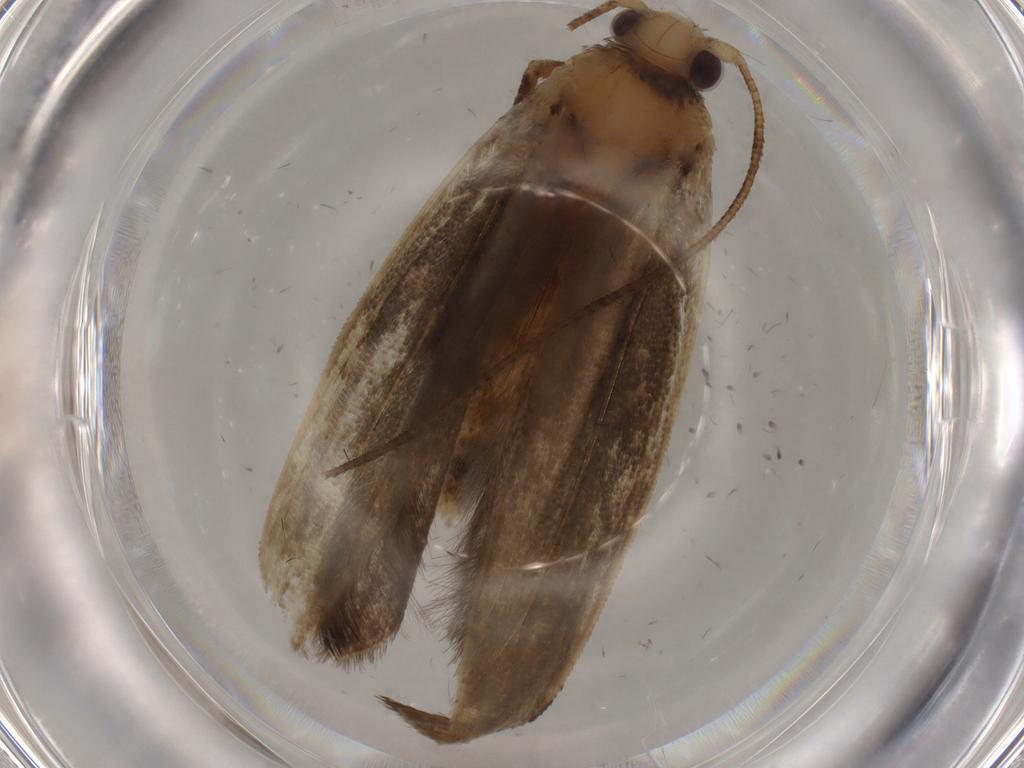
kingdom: Animalia
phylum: Arthropoda
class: Insecta
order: Lepidoptera
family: Yponomeutidae
